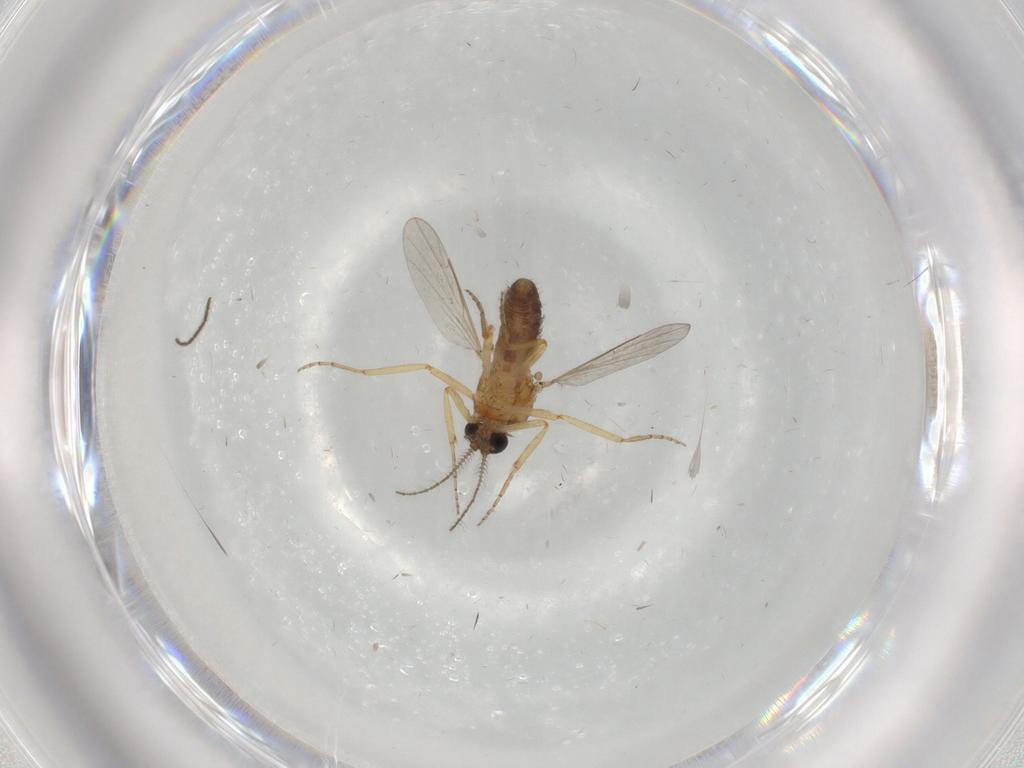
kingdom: Animalia
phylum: Arthropoda
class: Insecta
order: Diptera
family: Ceratopogonidae
